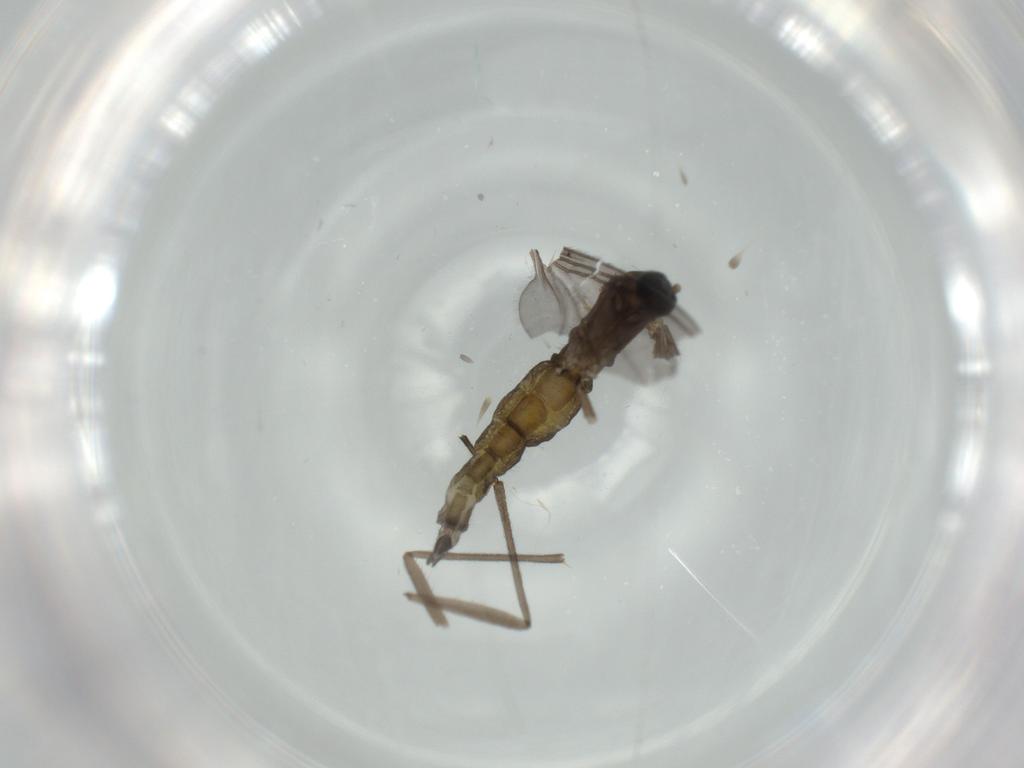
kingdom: Animalia
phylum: Arthropoda
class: Insecta
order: Diptera
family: Sciaridae
